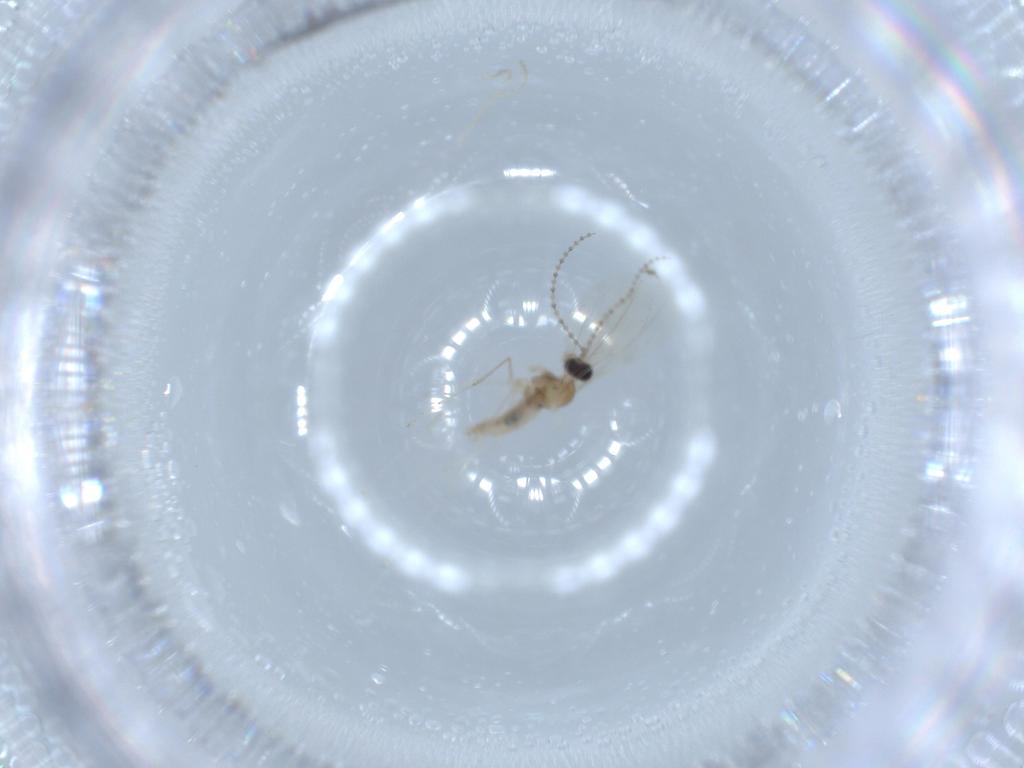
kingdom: Animalia
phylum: Arthropoda
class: Insecta
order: Diptera
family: Psychodidae
